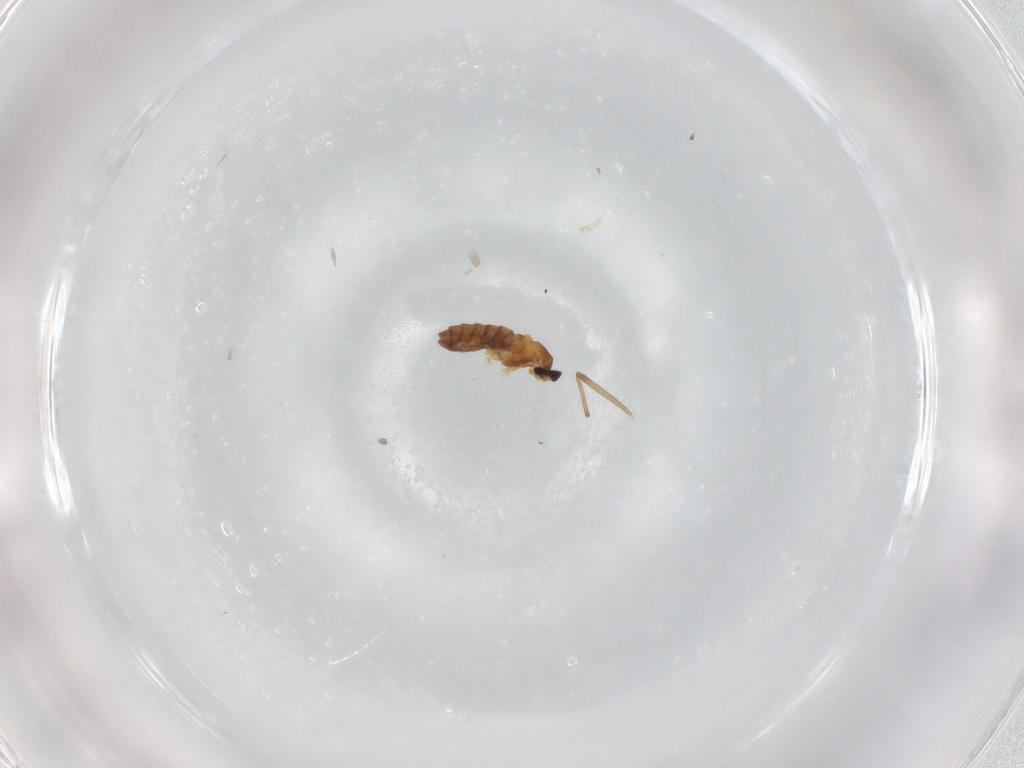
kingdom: Animalia
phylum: Arthropoda
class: Insecta
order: Diptera
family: Cecidomyiidae
